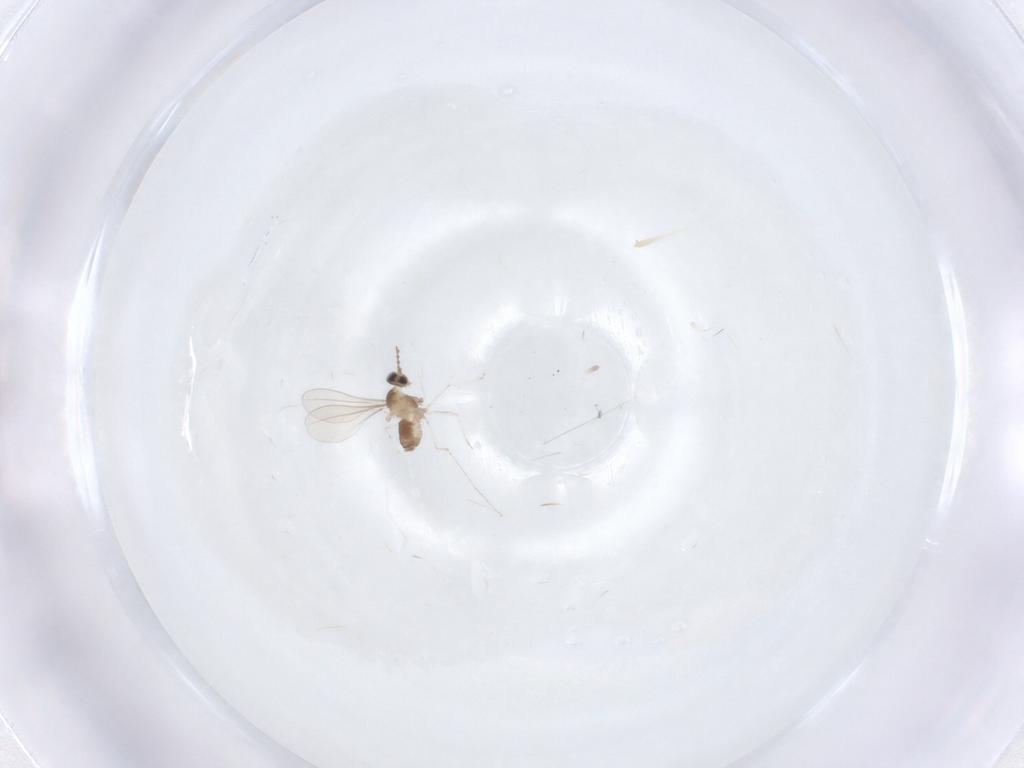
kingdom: Animalia
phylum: Arthropoda
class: Insecta
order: Diptera
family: Cecidomyiidae
